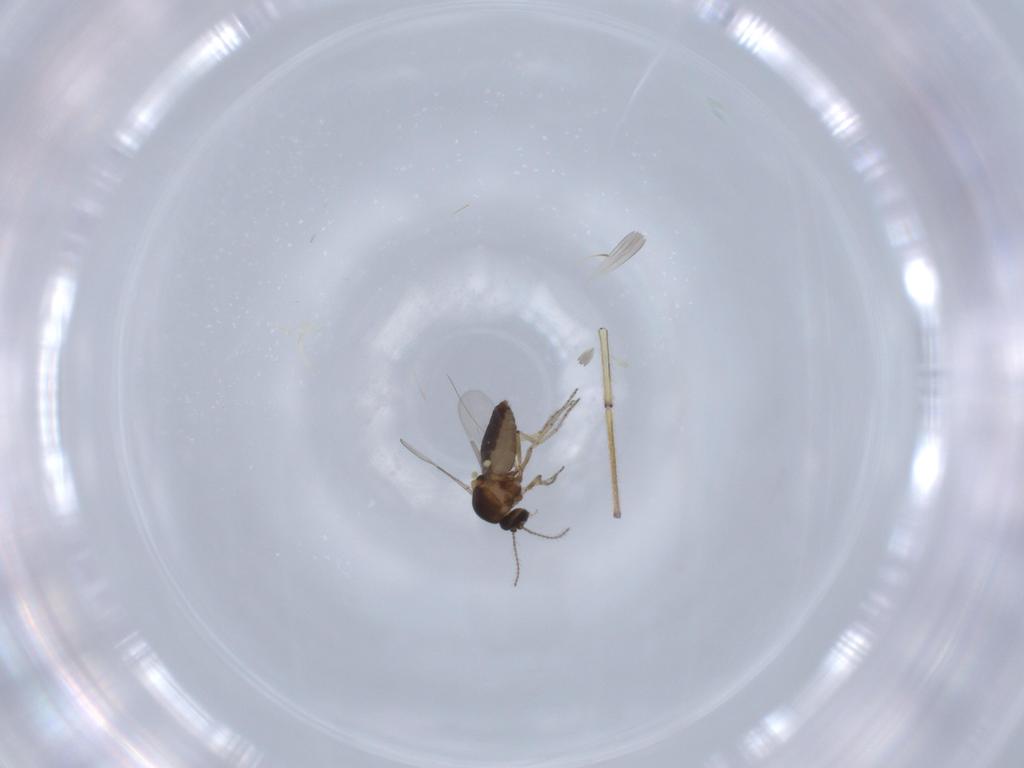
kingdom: Animalia
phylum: Arthropoda
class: Insecta
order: Diptera
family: Ceratopogonidae
